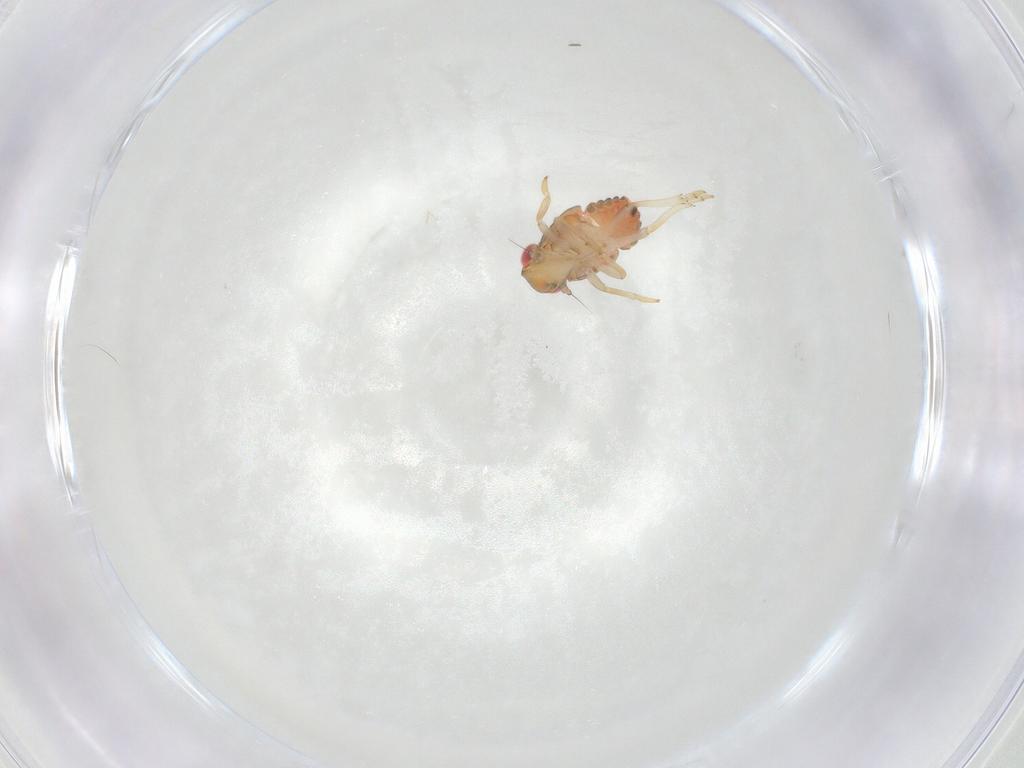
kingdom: Animalia
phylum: Arthropoda
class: Insecta
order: Hemiptera
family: Issidae
